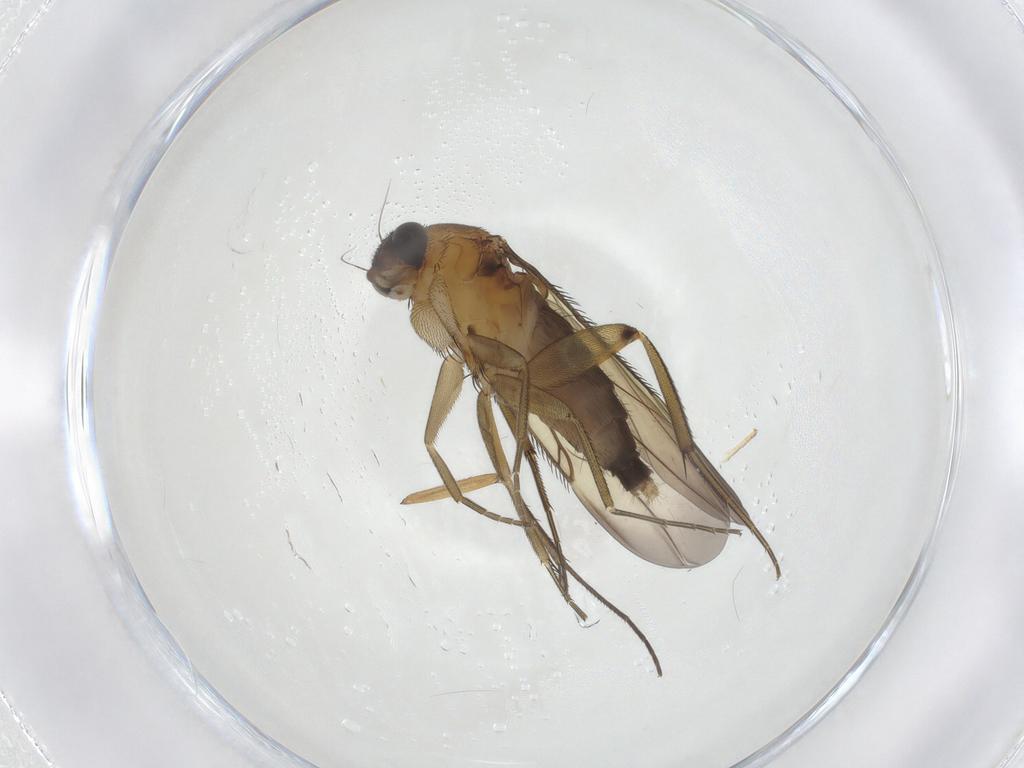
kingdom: Animalia
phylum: Arthropoda
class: Insecta
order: Diptera
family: Phoridae
